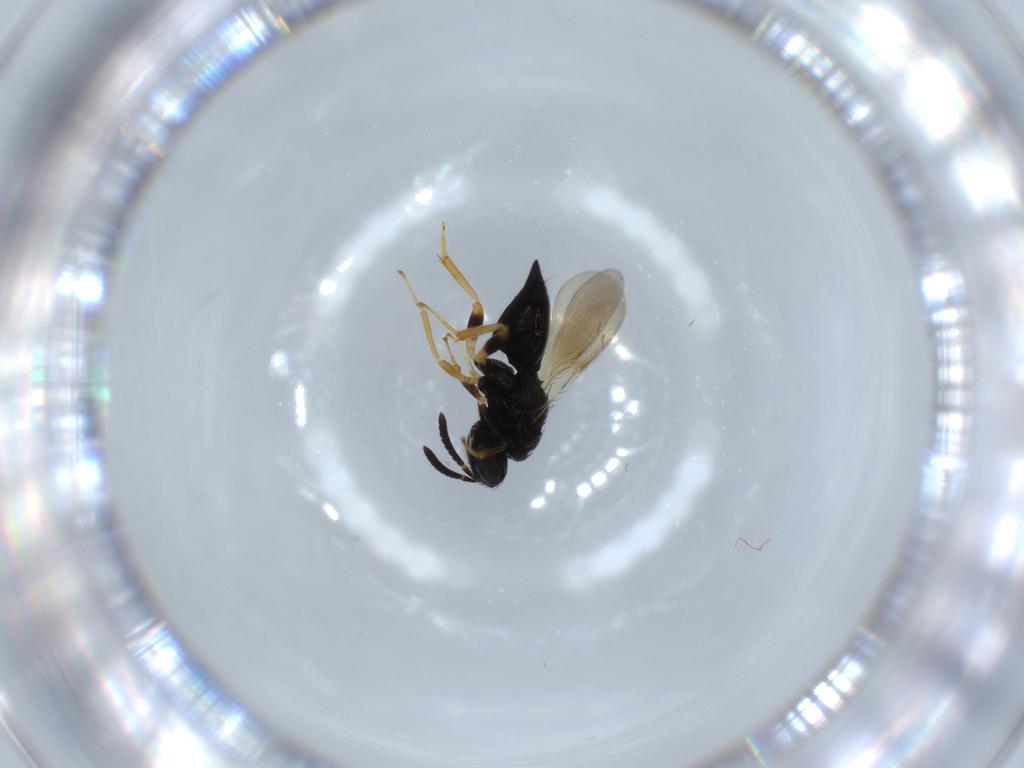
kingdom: Animalia
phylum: Arthropoda
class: Insecta
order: Hymenoptera
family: Pteromalidae
